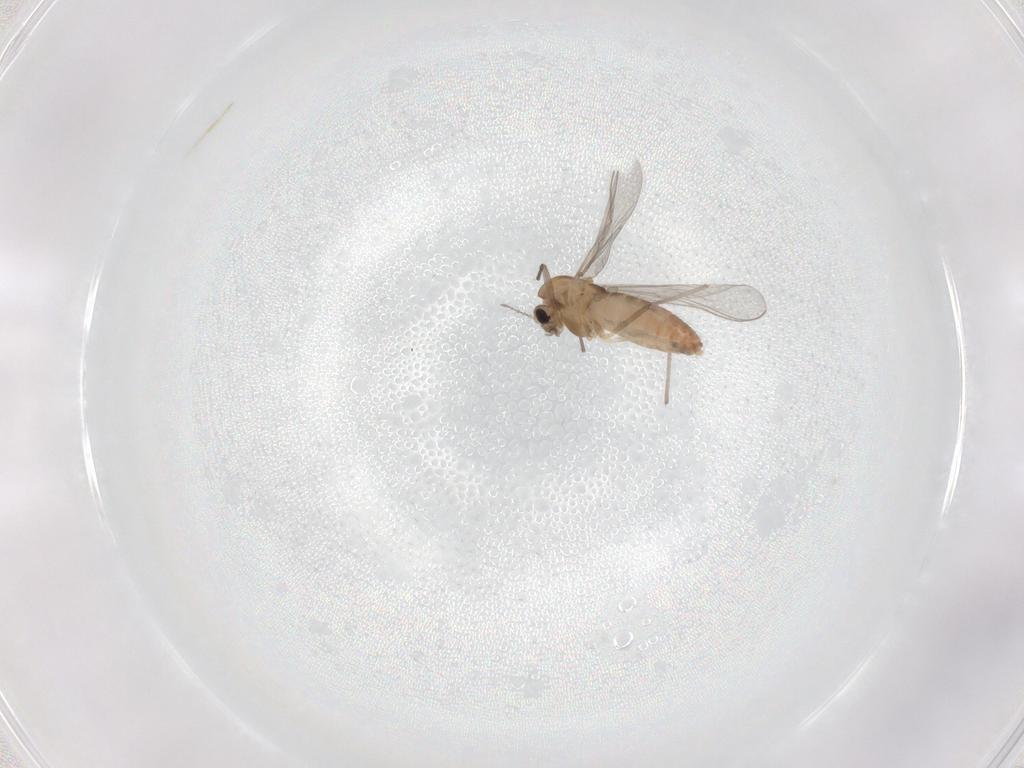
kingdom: Animalia
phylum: Arthropoda
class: Insecta
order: Diptera
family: Chironomidae
